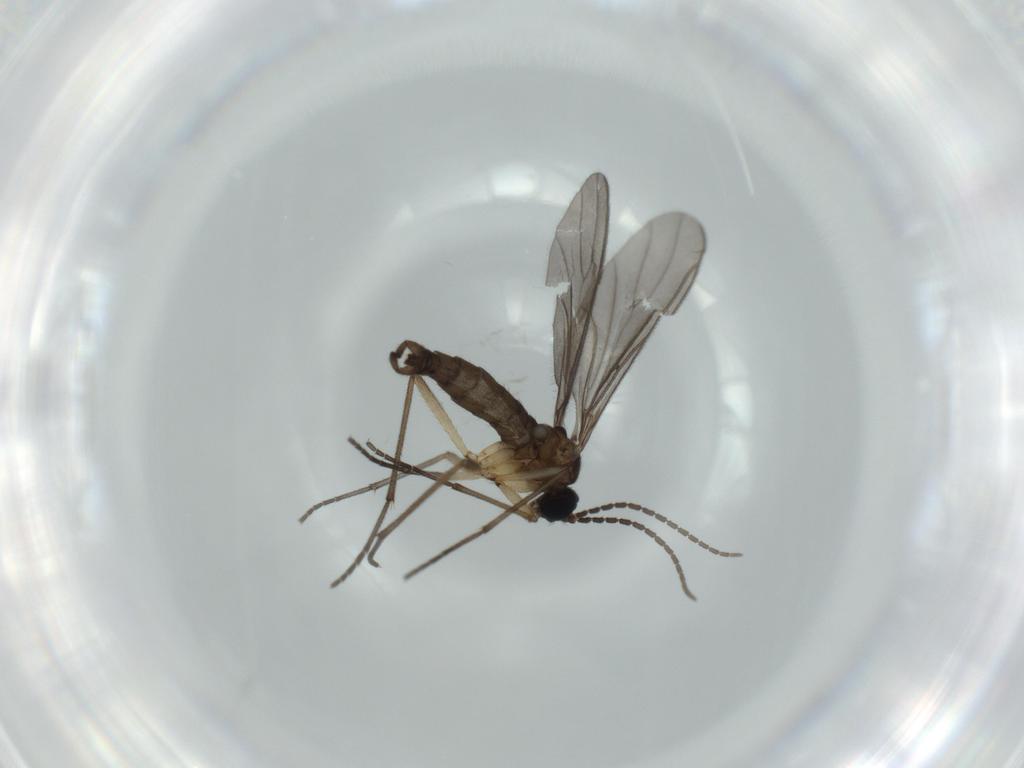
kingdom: Animalia
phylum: Arthropoda
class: Insecta
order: Diptera
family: Sciaridae
